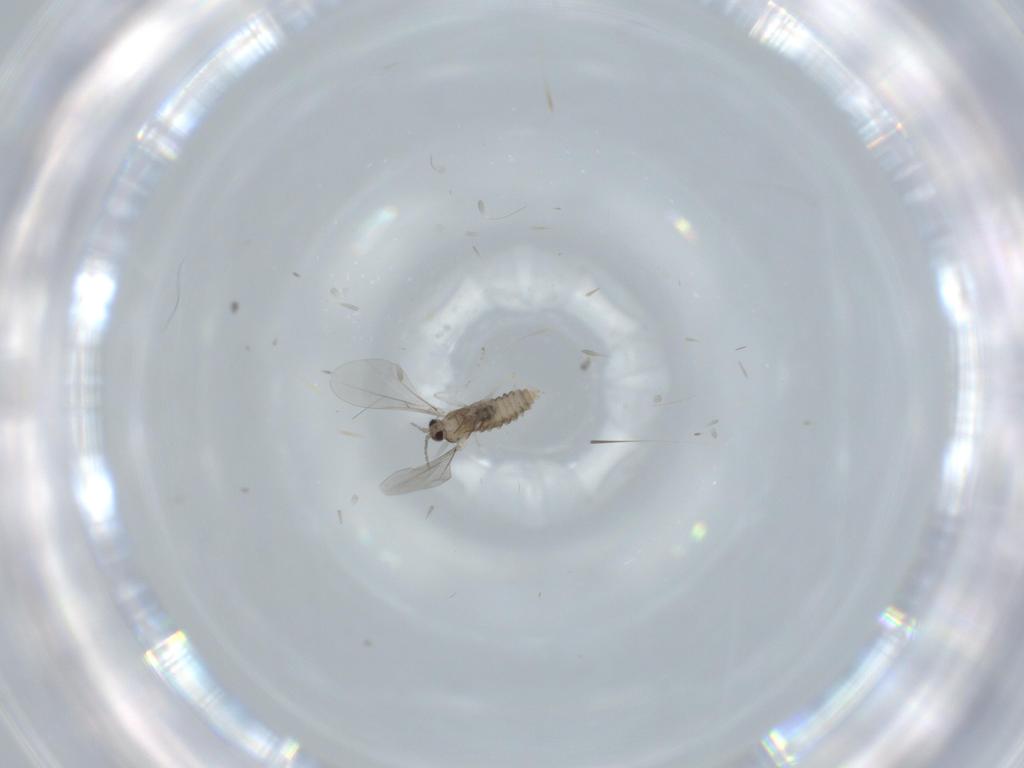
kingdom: Animalia
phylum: Arthropoda
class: Insecta
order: Diptera
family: Cecidomyiidae
